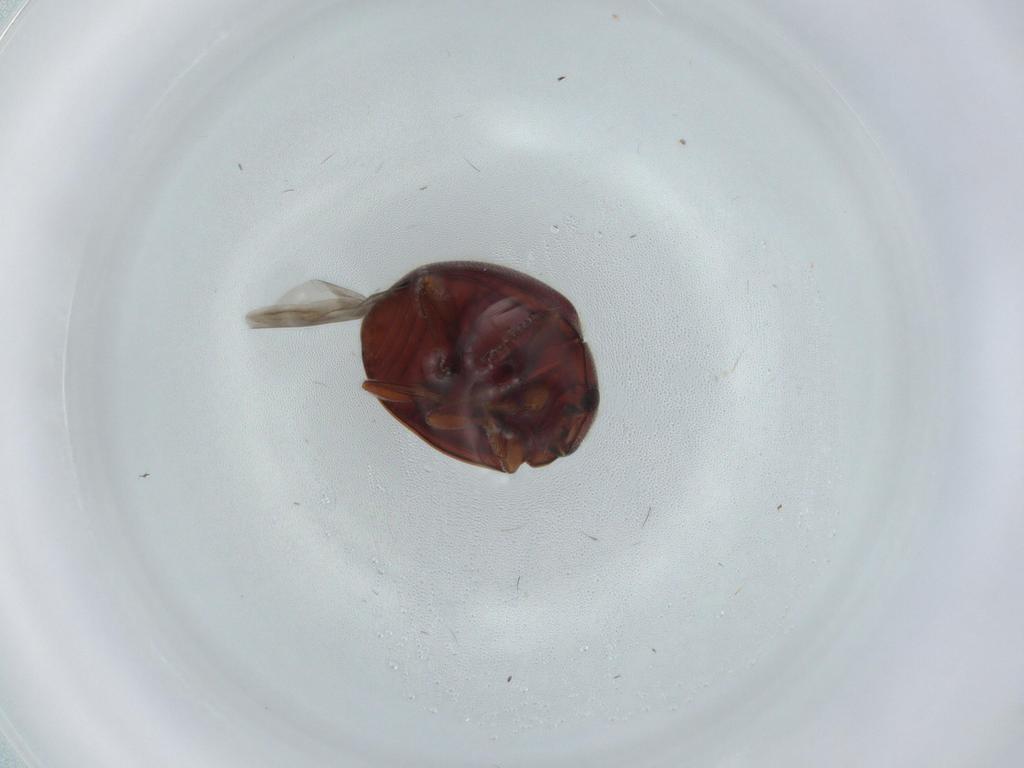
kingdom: Animalia
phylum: Arthropoda
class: Insecta
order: Coleoptera
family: Coccinellidae
